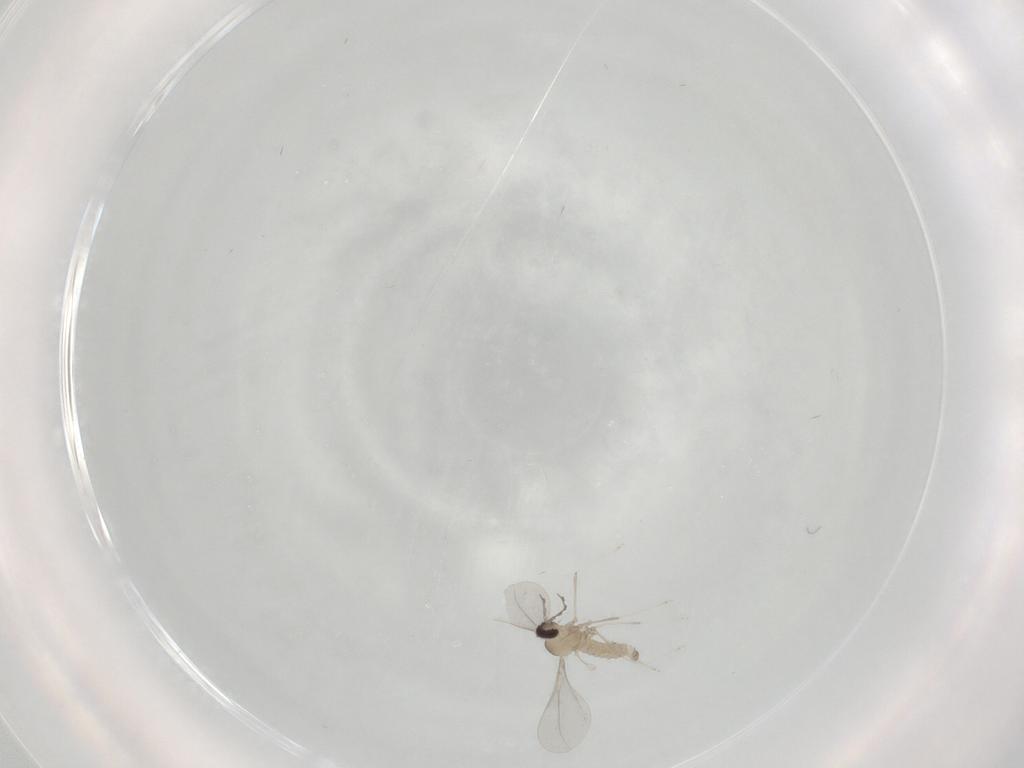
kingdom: Animalia
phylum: Arthropoda
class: Insecta
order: Diptera
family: Cecidomyiidae
